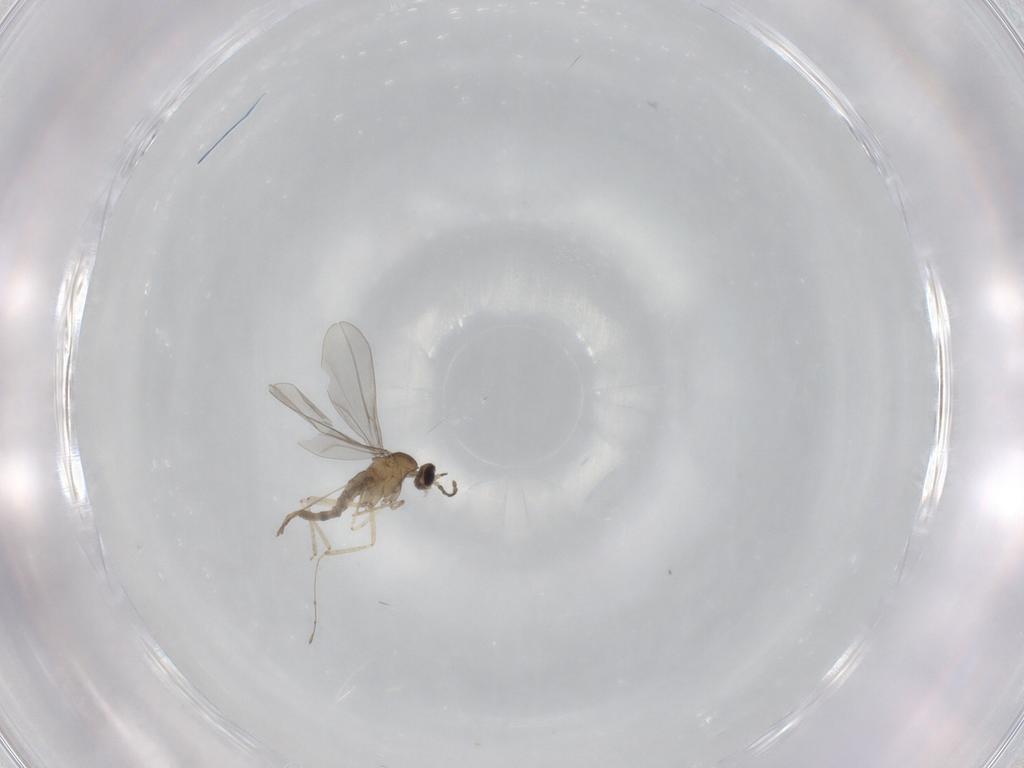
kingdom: Animalia
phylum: Arthropoda
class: Insecta
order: Diptera
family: Cecidomyiidae
